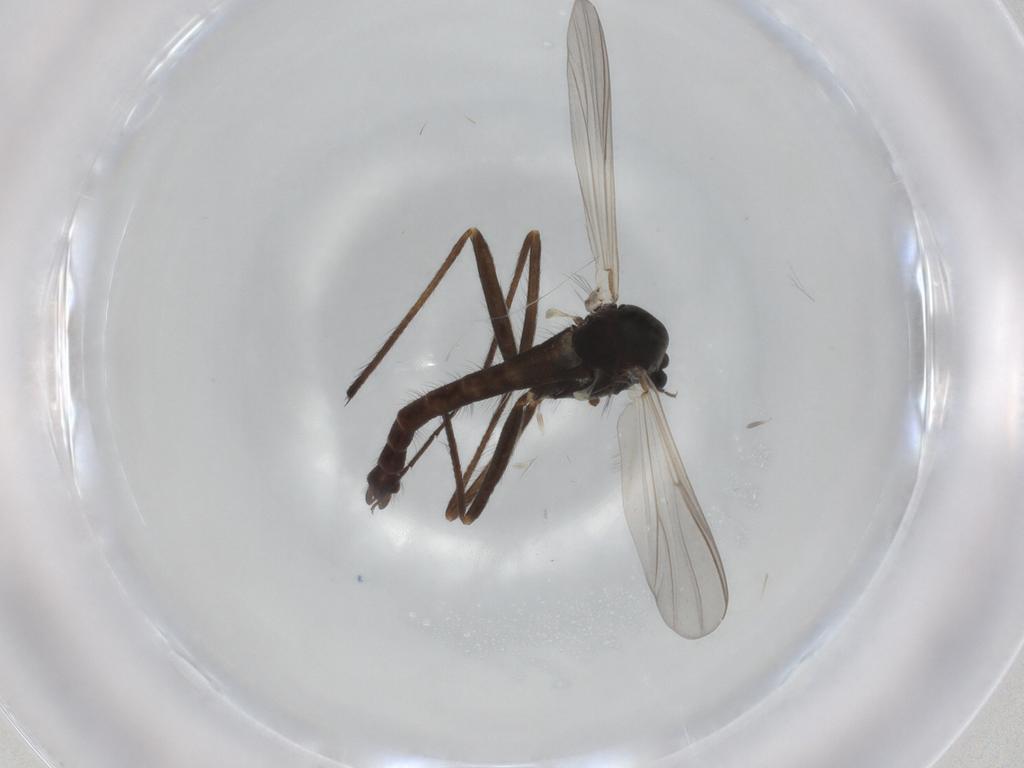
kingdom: Animalia
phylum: Arthropoda
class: Insecta
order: Diptera
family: Chironomidae
